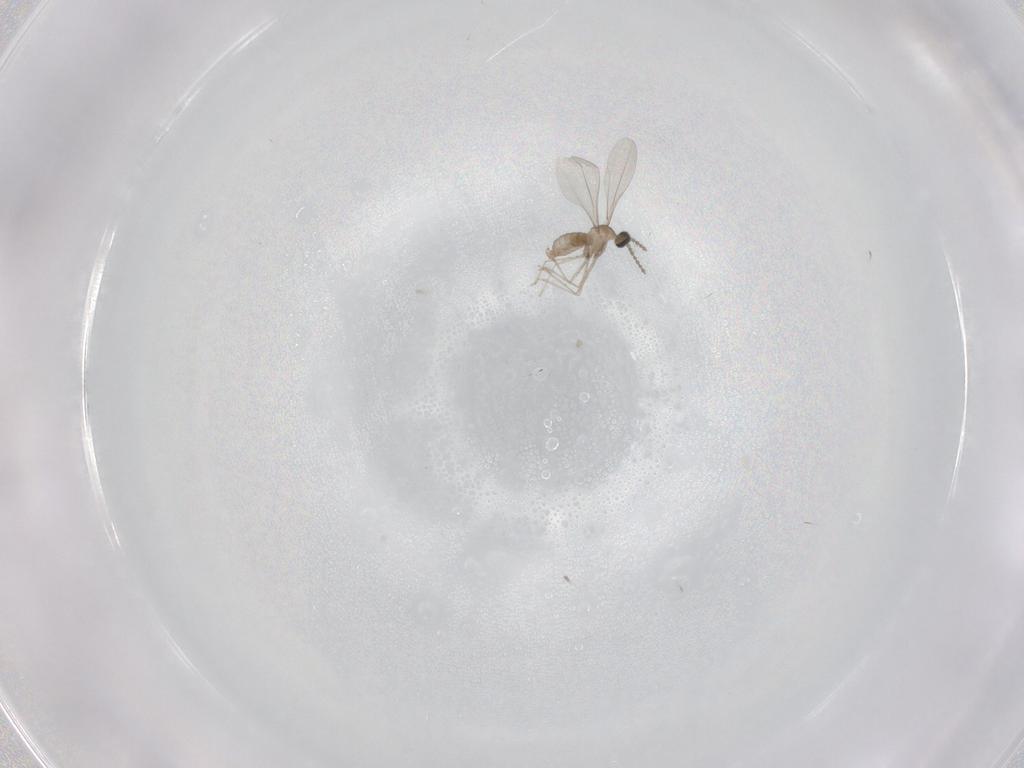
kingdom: Animalia
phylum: Arthropoda
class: Insecta
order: Diptera
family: Cecidomyiidae
